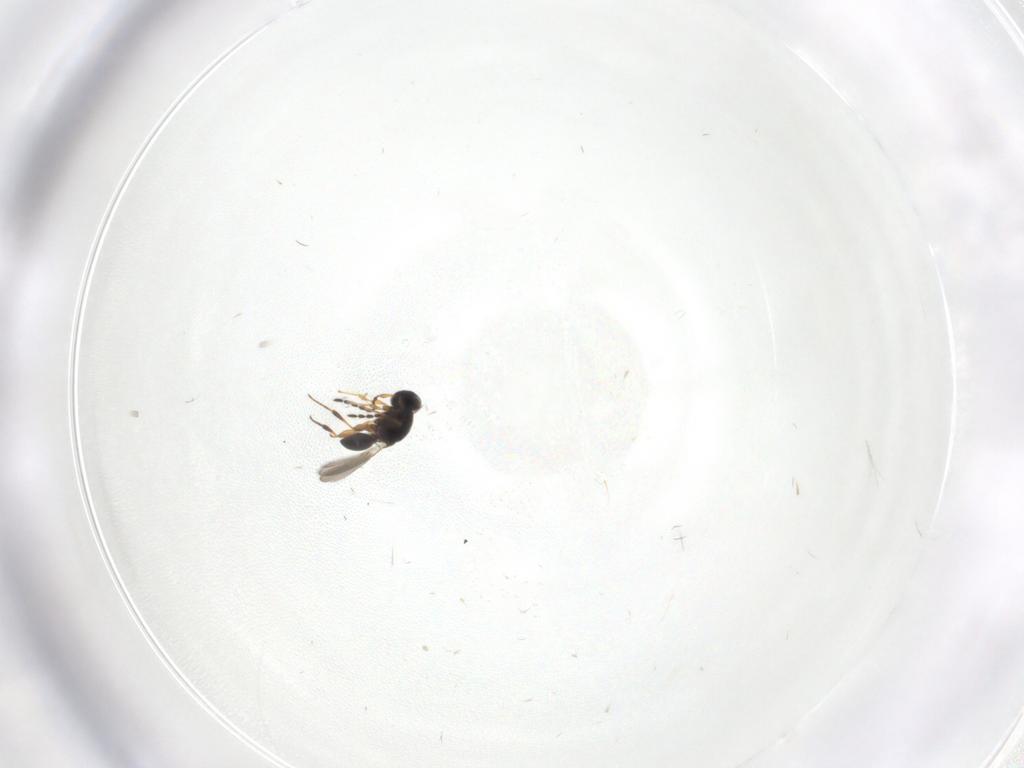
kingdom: Animalia
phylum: Arthropoda
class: Insecta
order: Hymenoptera
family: Platygastridae
